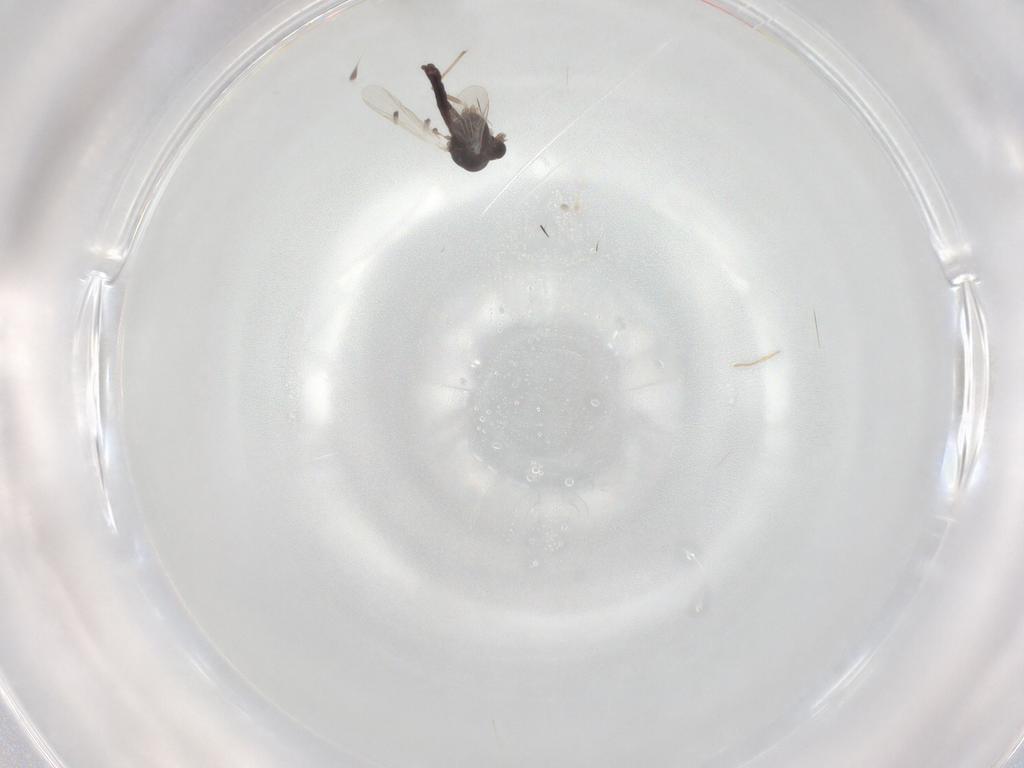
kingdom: Animalia
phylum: Arthropoda
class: Insecta
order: Diptera
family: Chironomidae
